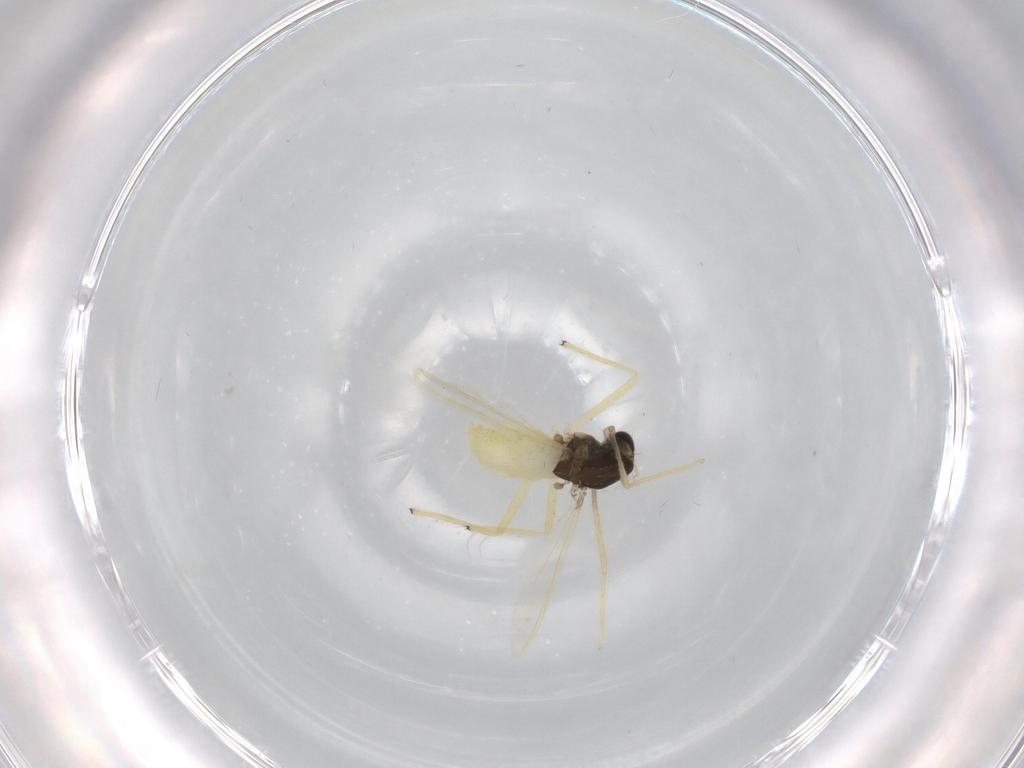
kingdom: Animalia
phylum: Arthropoda
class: Insecta
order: Diptera
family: Chironomidae
